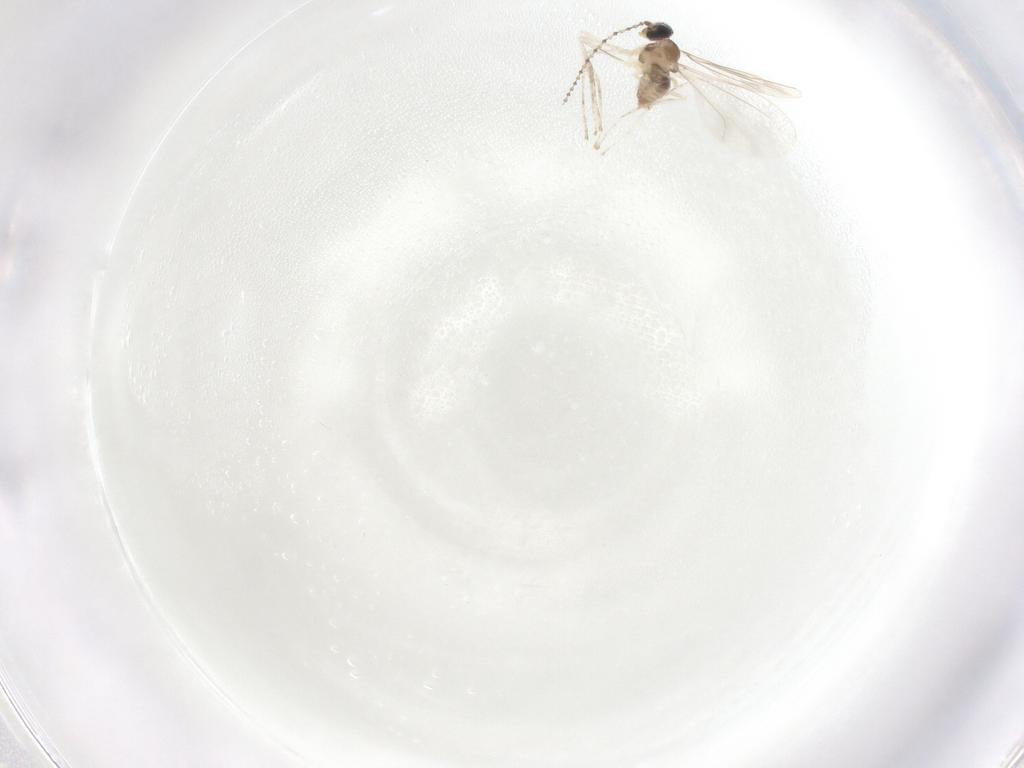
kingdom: Animalia
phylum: Arthropoda
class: Insecta
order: Diptera
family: Cecidomyiidae
